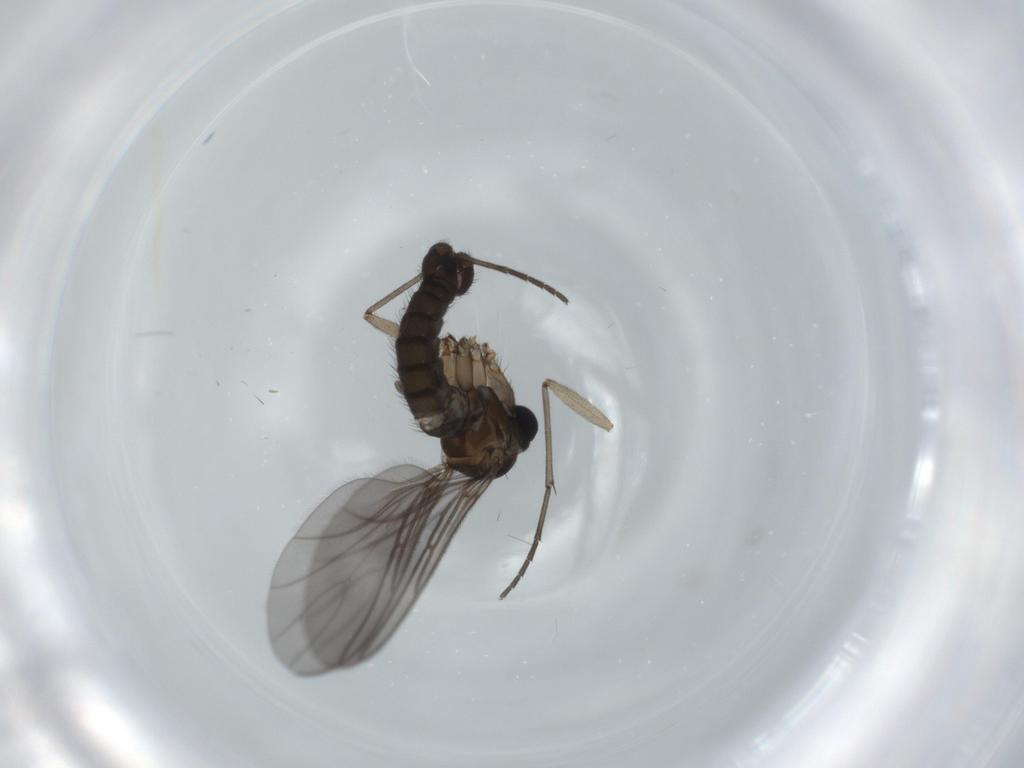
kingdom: Animalia
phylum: Arthropoda
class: Insecta
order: Diptera
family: Sciaridae
